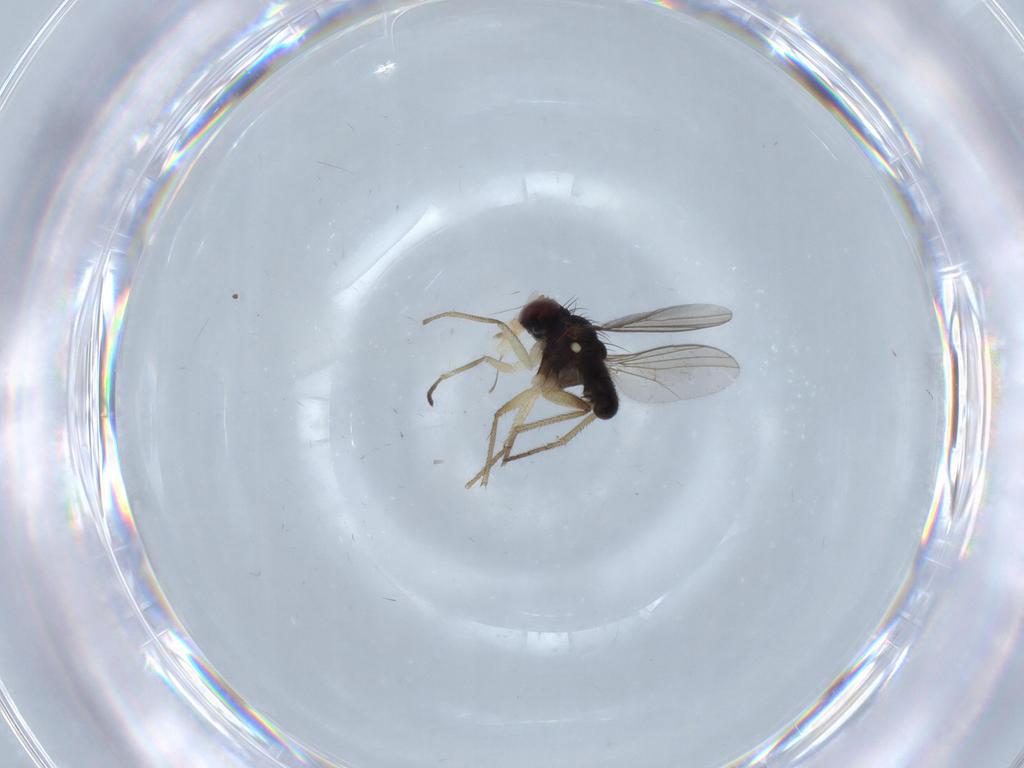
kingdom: Animalia
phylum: Arthropoda
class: Insecta
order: Diptera
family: Dolichopodidae
